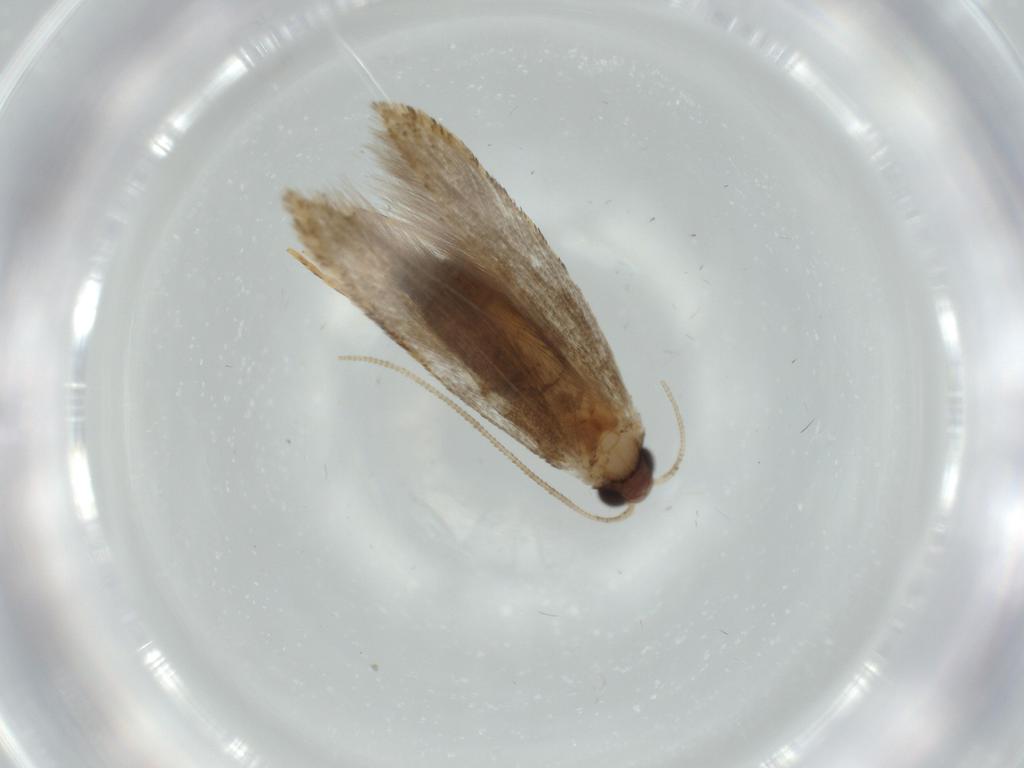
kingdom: Animalia
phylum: Arthropoda
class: Insecta
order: Lepidoptera
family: Tineidae
